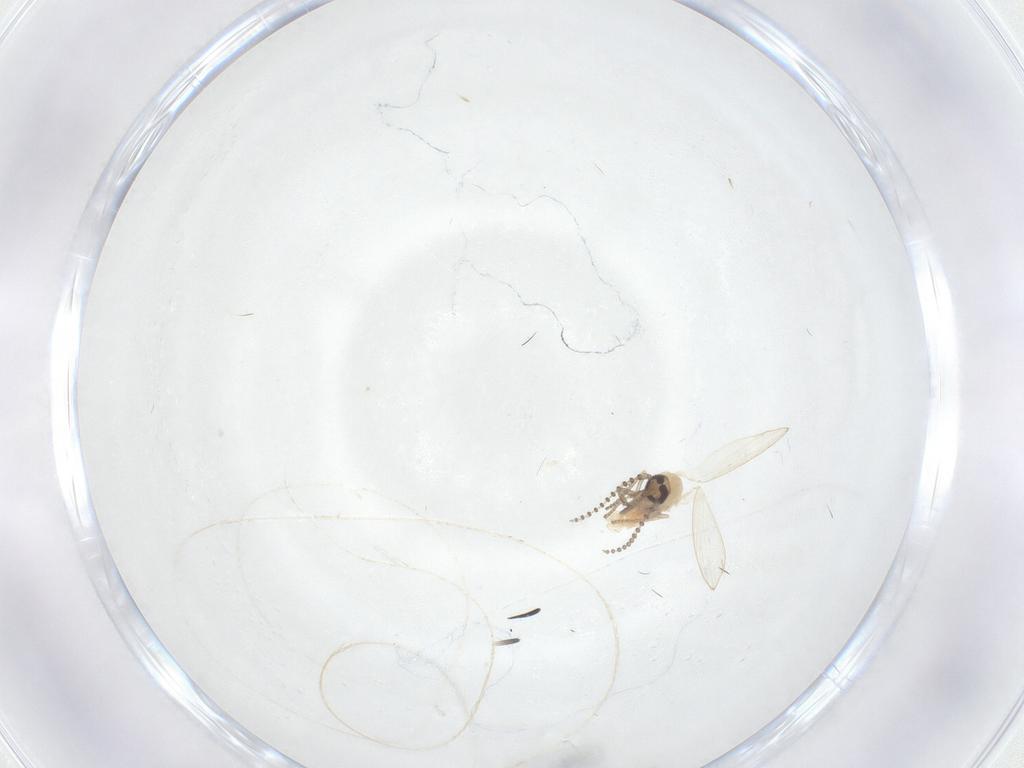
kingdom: Animalia
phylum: Arthropoda
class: Insecta
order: Diptera
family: Psychodidae
